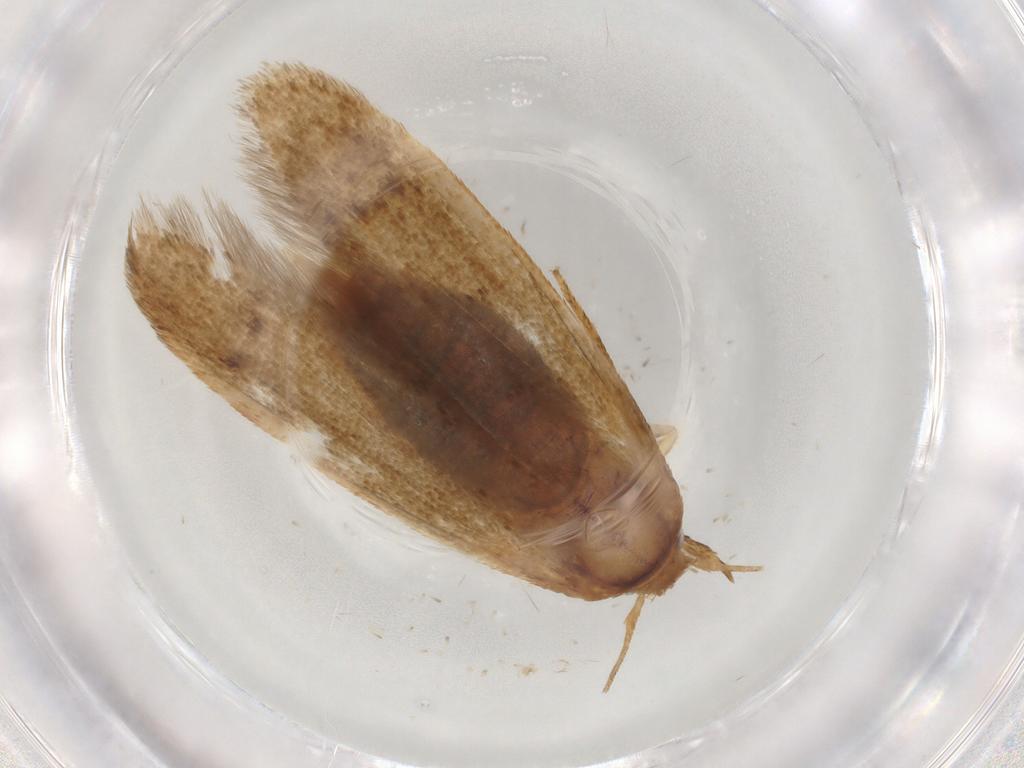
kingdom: Animalia
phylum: Arthropoda
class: Insecta
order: Lepidoptera
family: Blastobasidae
